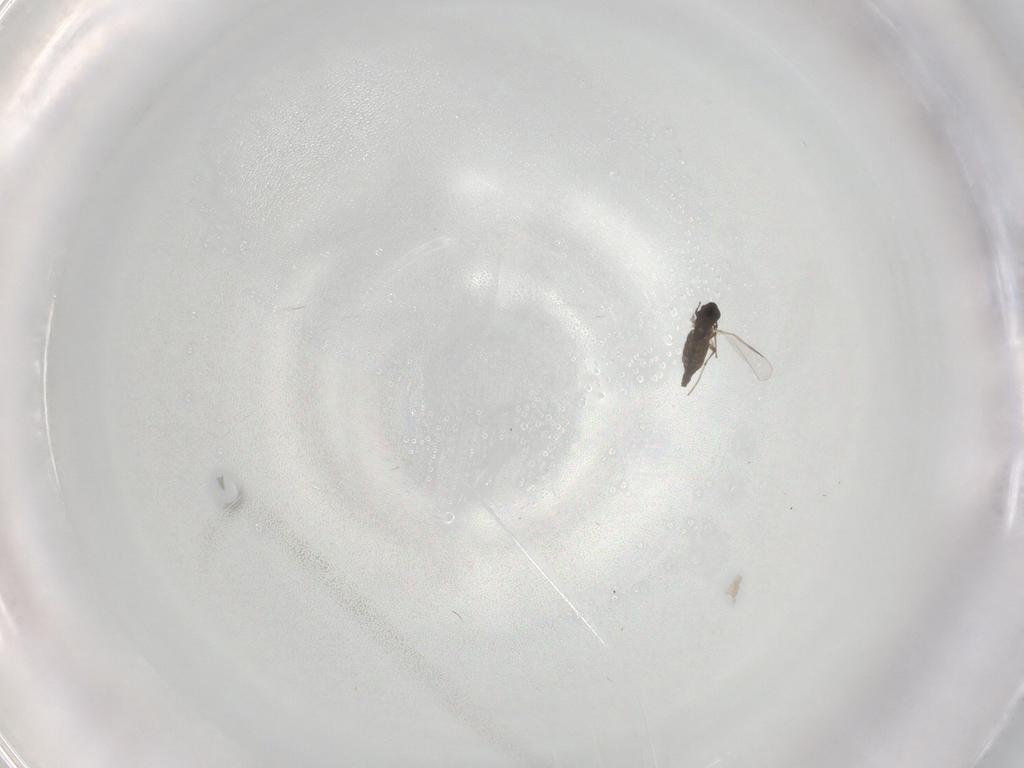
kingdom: Animalia
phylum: Arthropoda
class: Insecta
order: Diptera
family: Chironomidae
